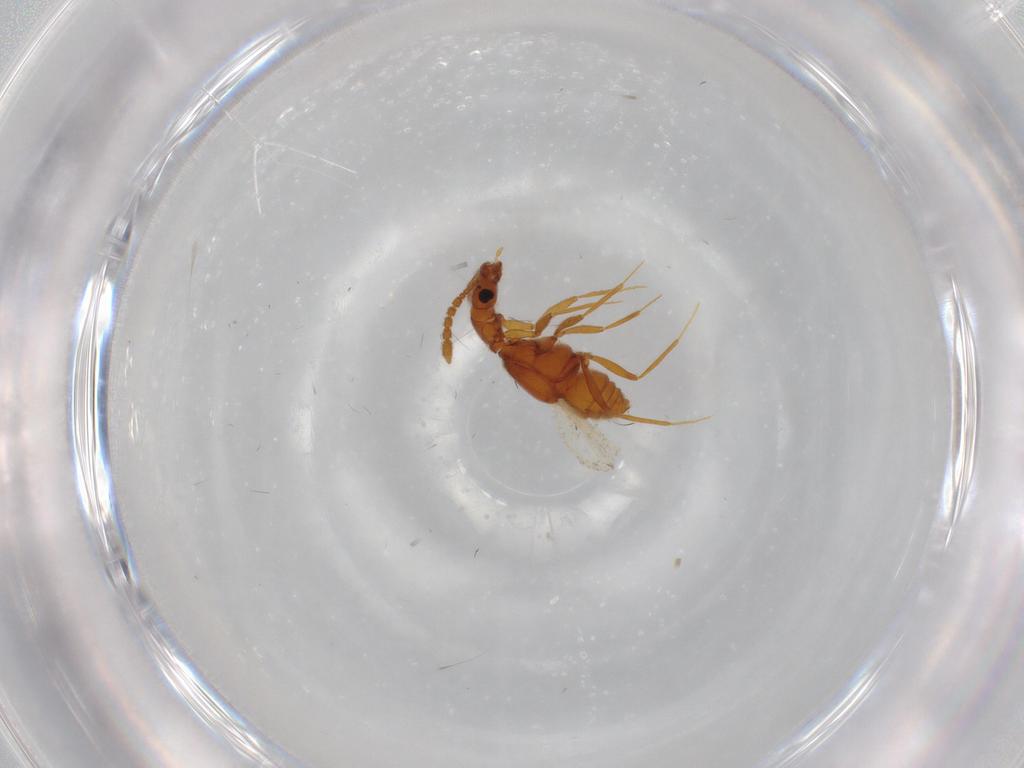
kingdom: Animalia
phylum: Arthropoda
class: Insecta
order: Coleoptera
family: Staphylinidae
